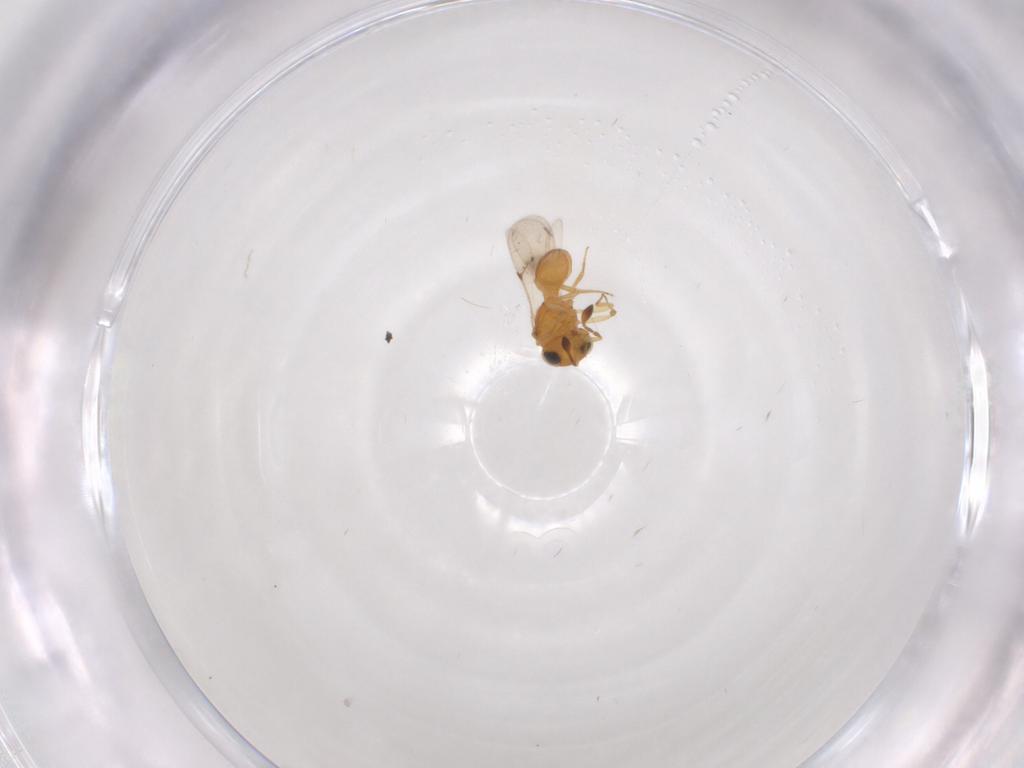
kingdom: Animalia
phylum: Arthropoda
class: Insecta
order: Hymenoptera
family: Scelionidae
